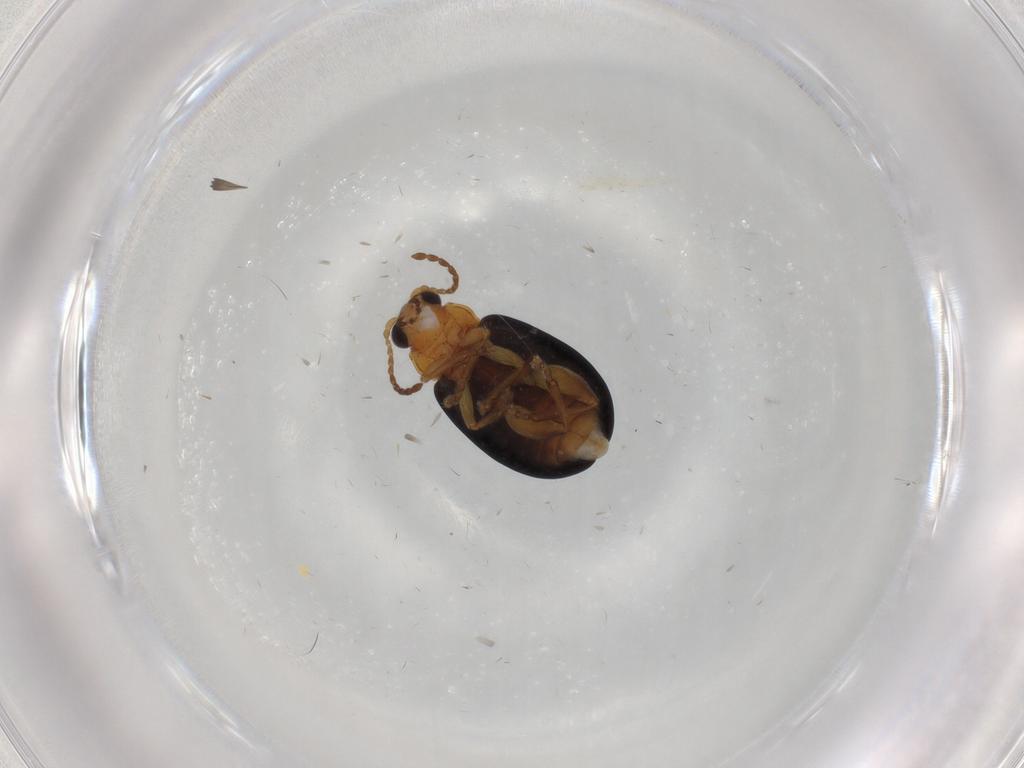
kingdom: Animalia
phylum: Arthropoda
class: Insecta
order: Coleoptera
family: Chrysomelidae
